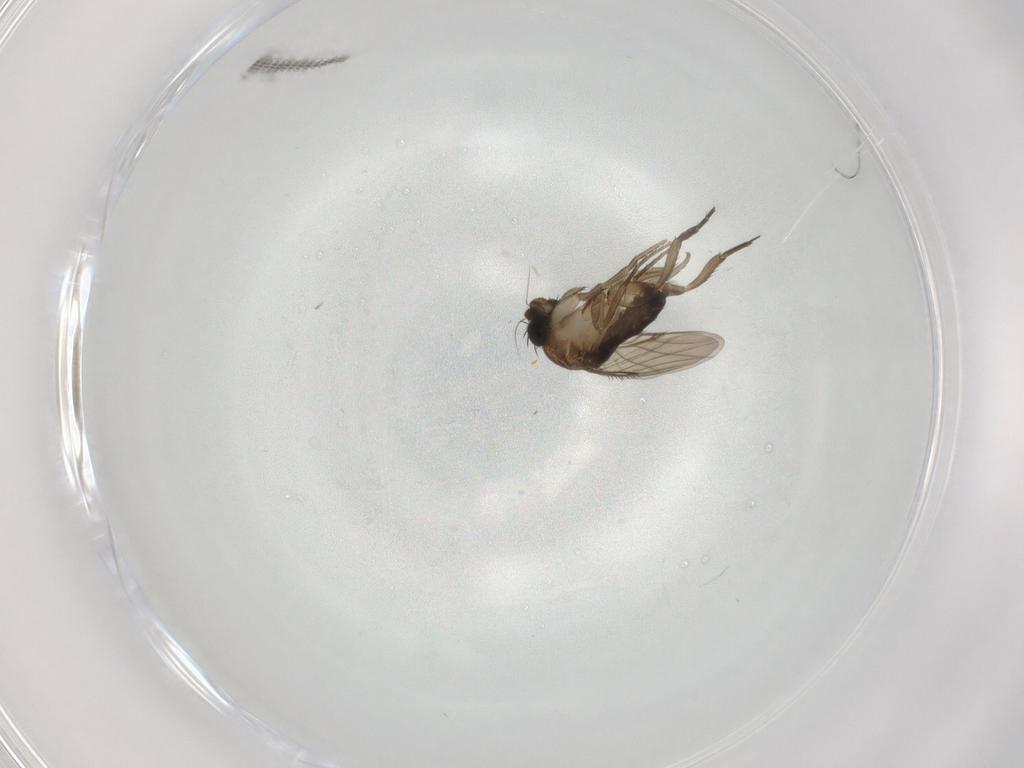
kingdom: Animalia
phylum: Arthropoda
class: Insecta
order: Diptera
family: Phoridae
